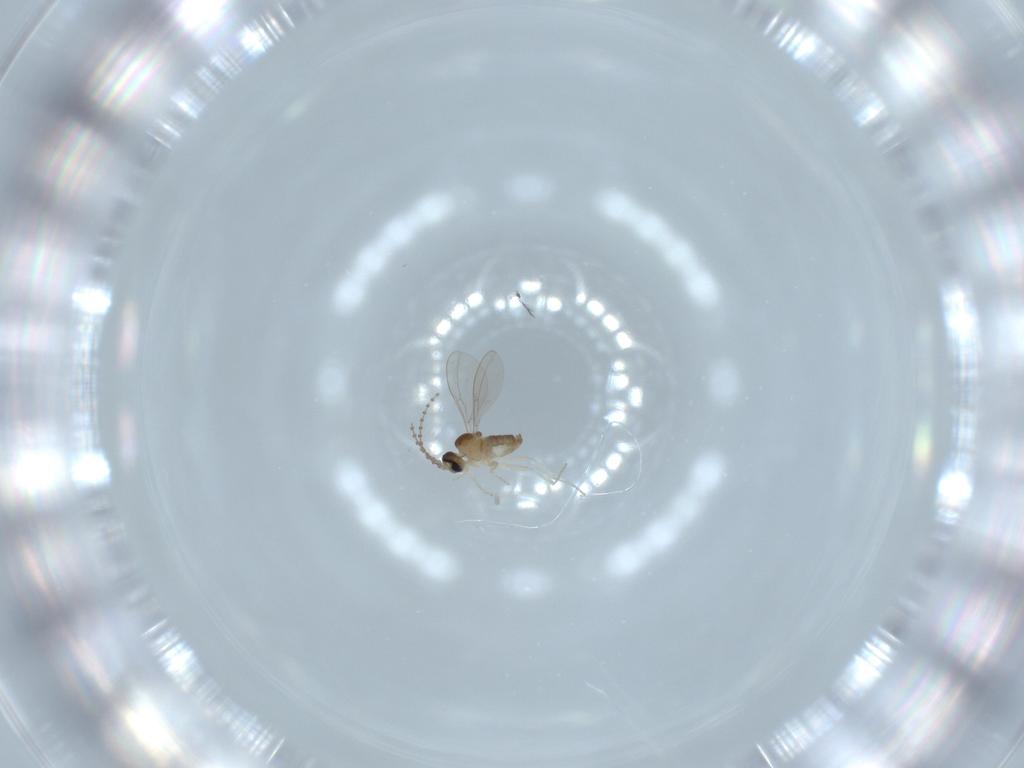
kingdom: Animalia
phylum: Arthropoda
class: Insecta
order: Diptera
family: Cecidomyiidae
